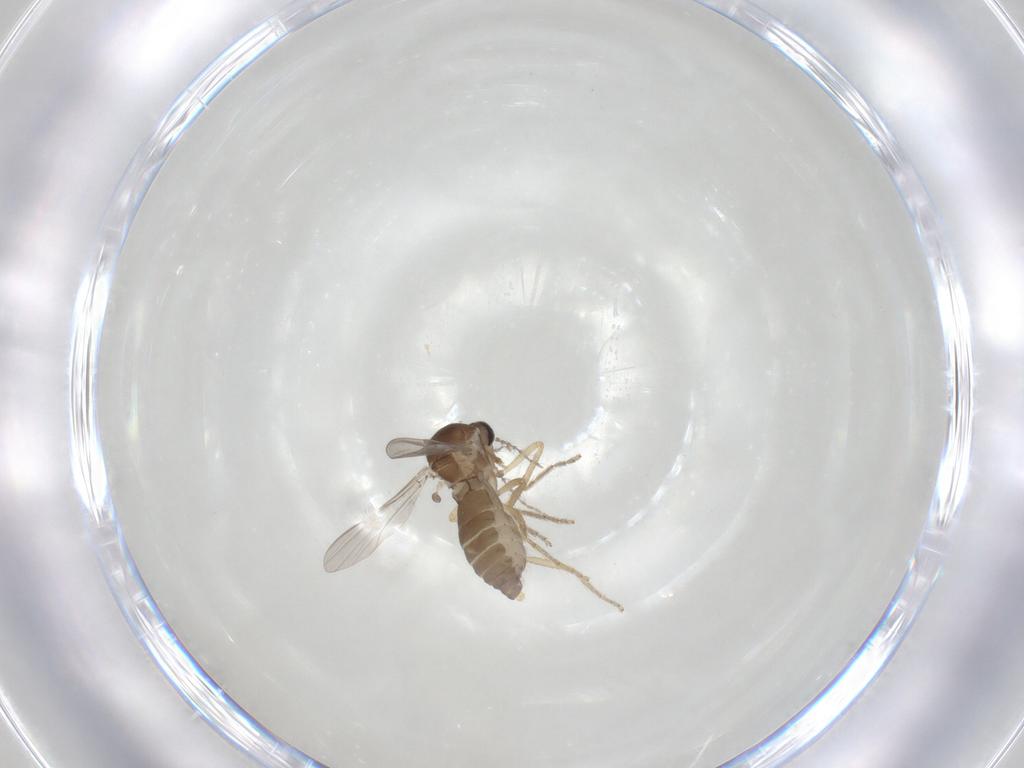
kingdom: Animalia
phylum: Arthropoda
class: Insecta
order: Diptera
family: Ceratopogonidae
